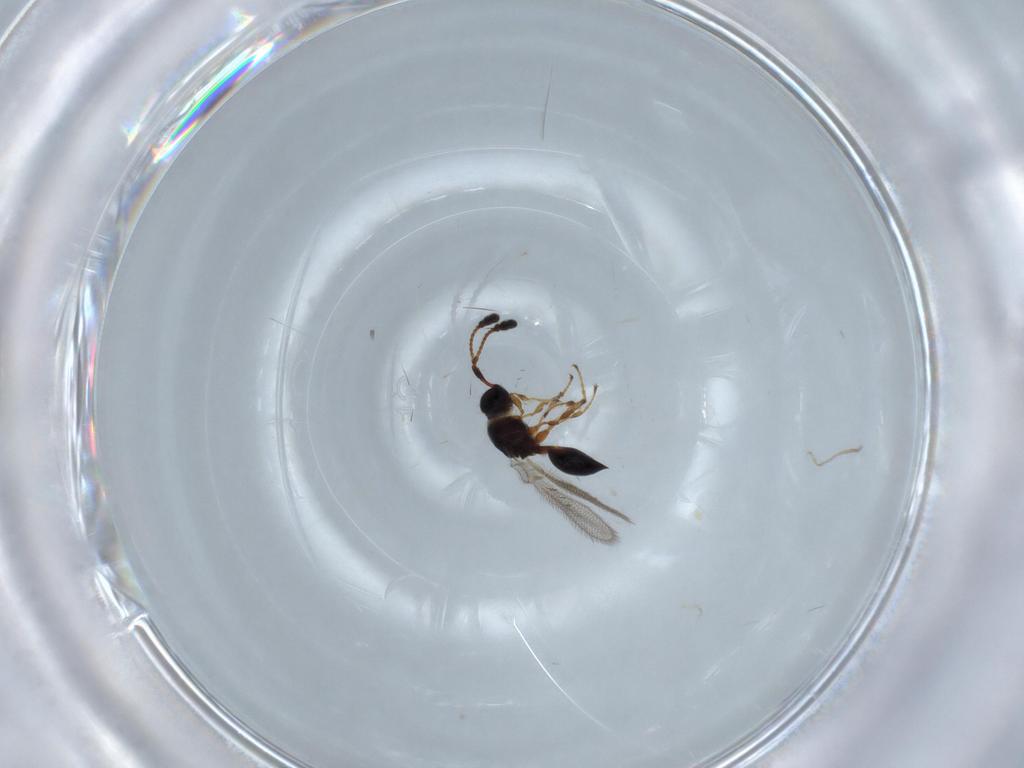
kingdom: Animalia
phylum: Arthropoda
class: Insecta
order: Hymenoptera
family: Diapriidae
